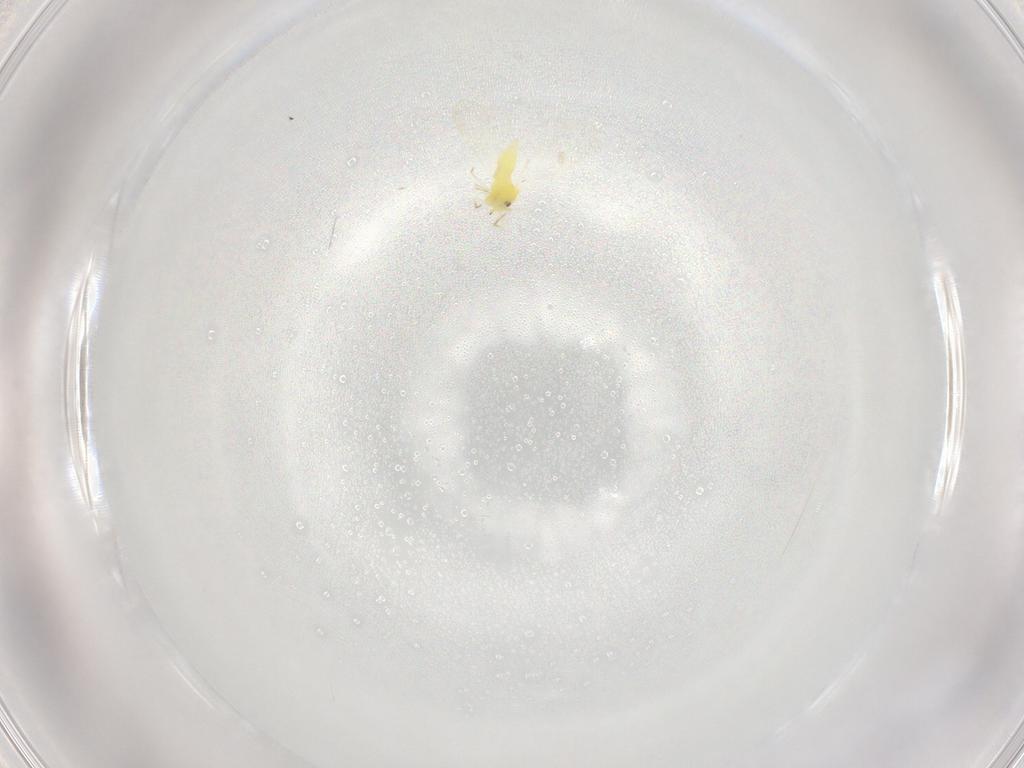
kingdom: Animalia
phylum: Arthropoda
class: Insecta
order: Hemiptera
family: Aleyrodidae
